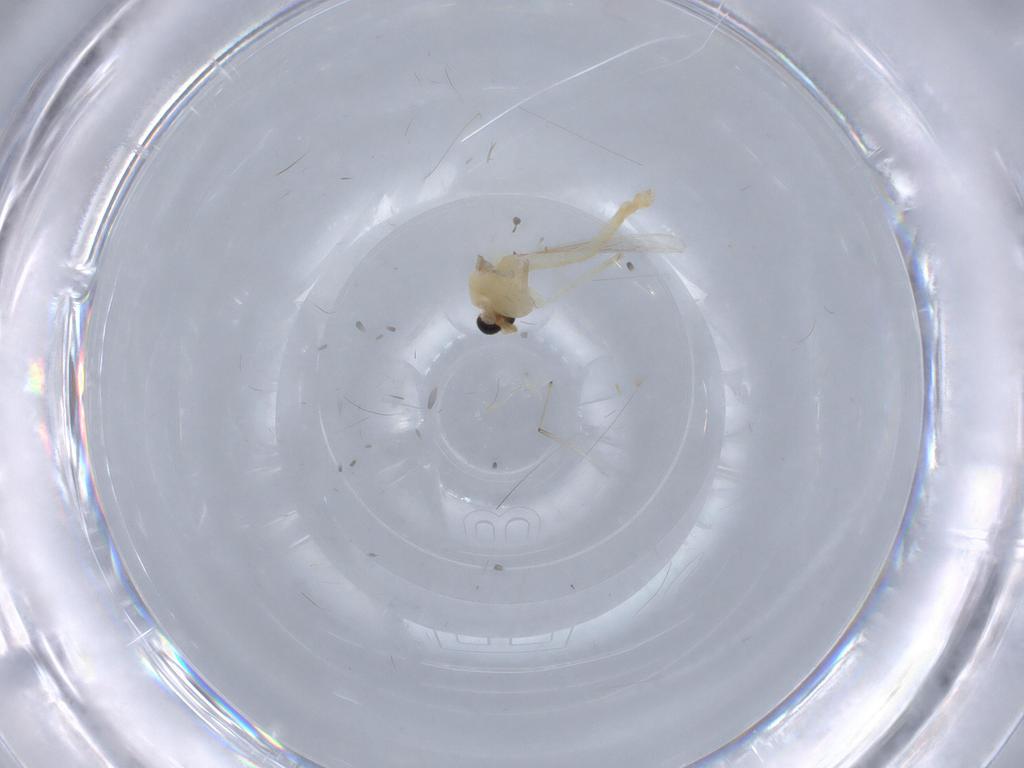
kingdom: Animalia
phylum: Arthropoda
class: Insecta
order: Diptera
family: Chironomidae
